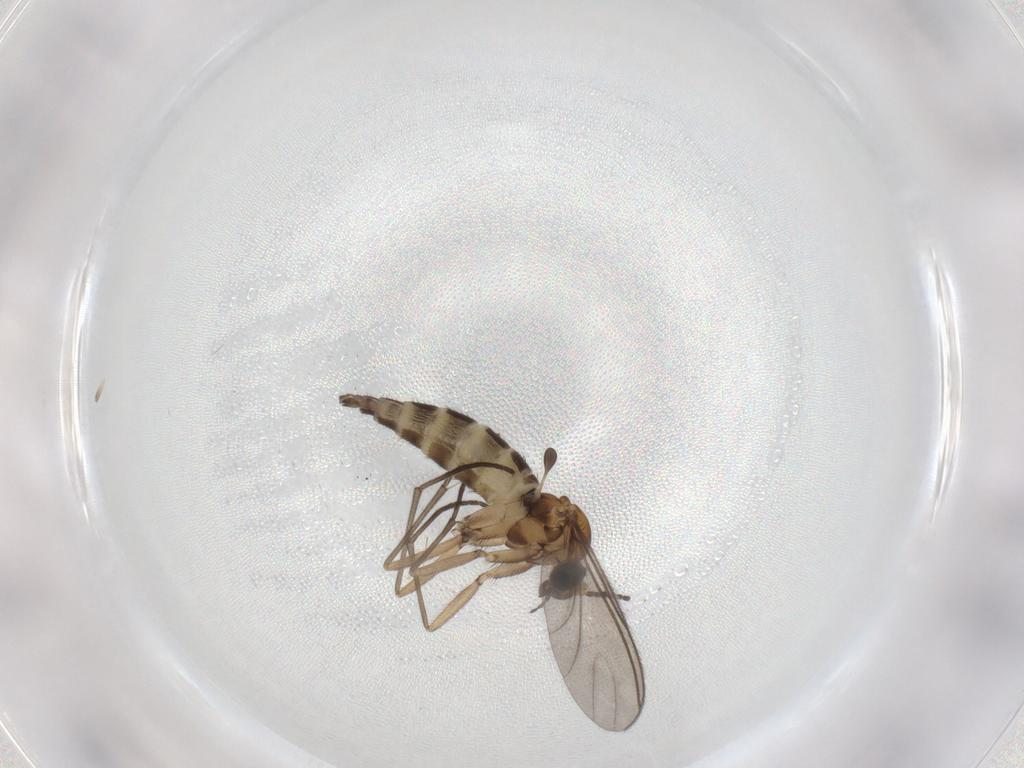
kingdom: Animalia
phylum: Arthropoda
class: Insecta
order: Diptera
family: Sciaridae
